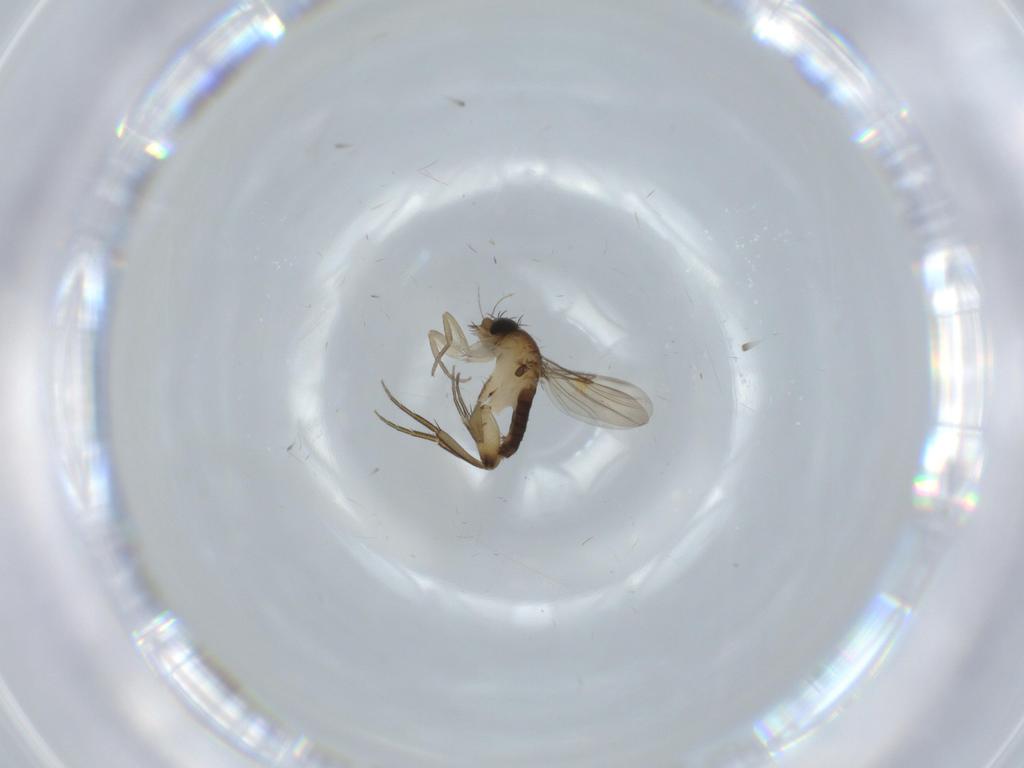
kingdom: Animalia
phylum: Arthropoda
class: Insecta
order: Diptera
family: Phoridae
